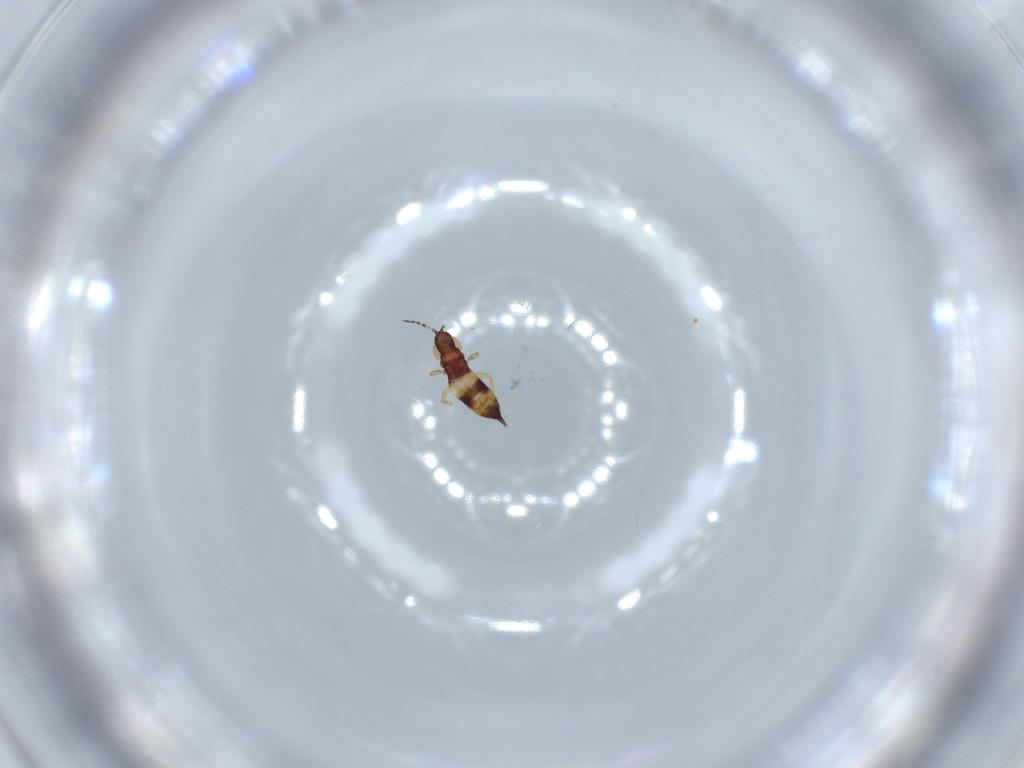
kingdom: Animalia
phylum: Arthropoda
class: Insecta
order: Thysanoptera
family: Phlaeothripidae
